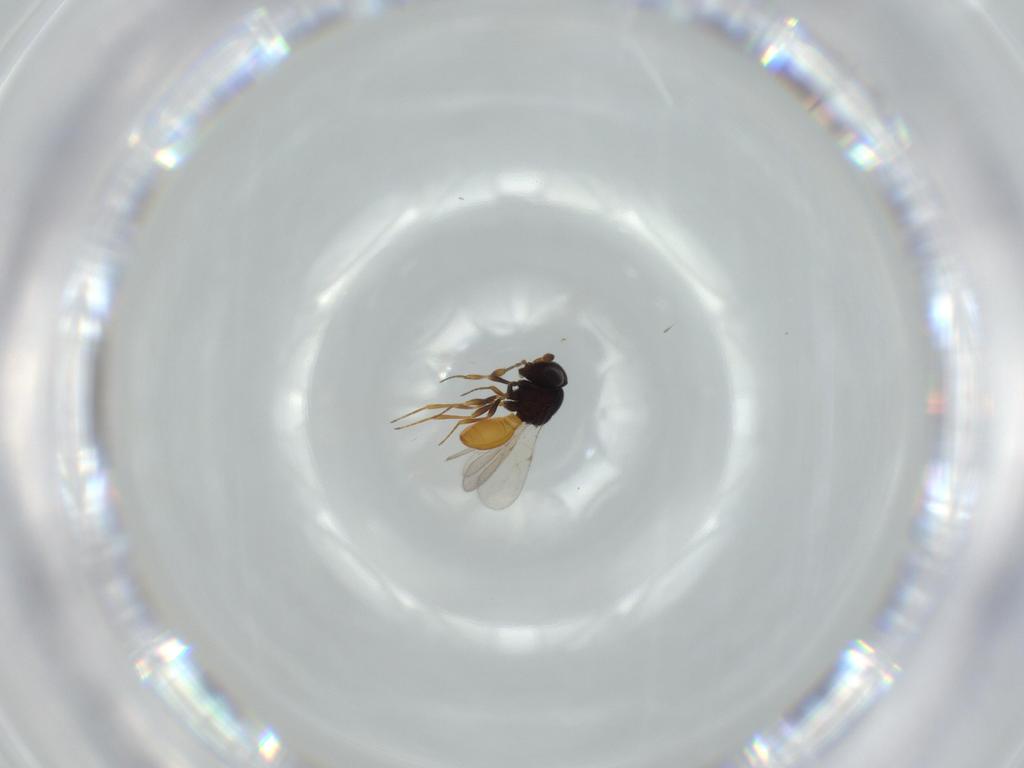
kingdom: Animalia
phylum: Arthropoda
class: Insecta
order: Hymenoptera
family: Scelionidae
